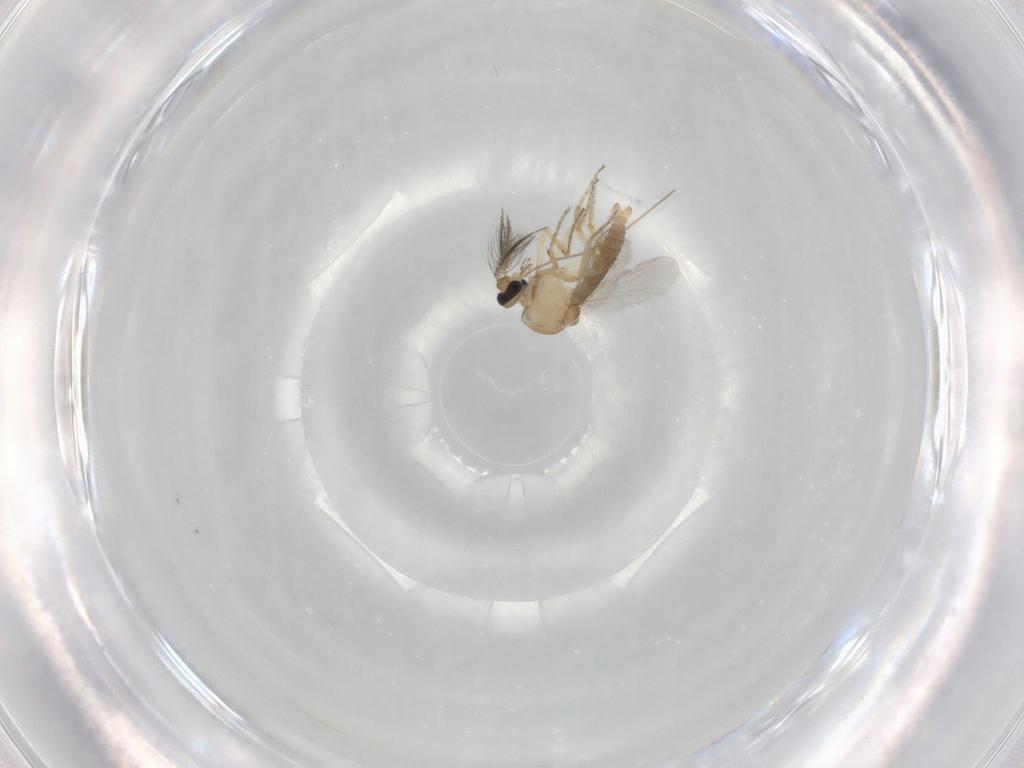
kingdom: Animalia
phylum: Arthropoda
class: Insecta
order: Diptera
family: Ceratopogonidae
